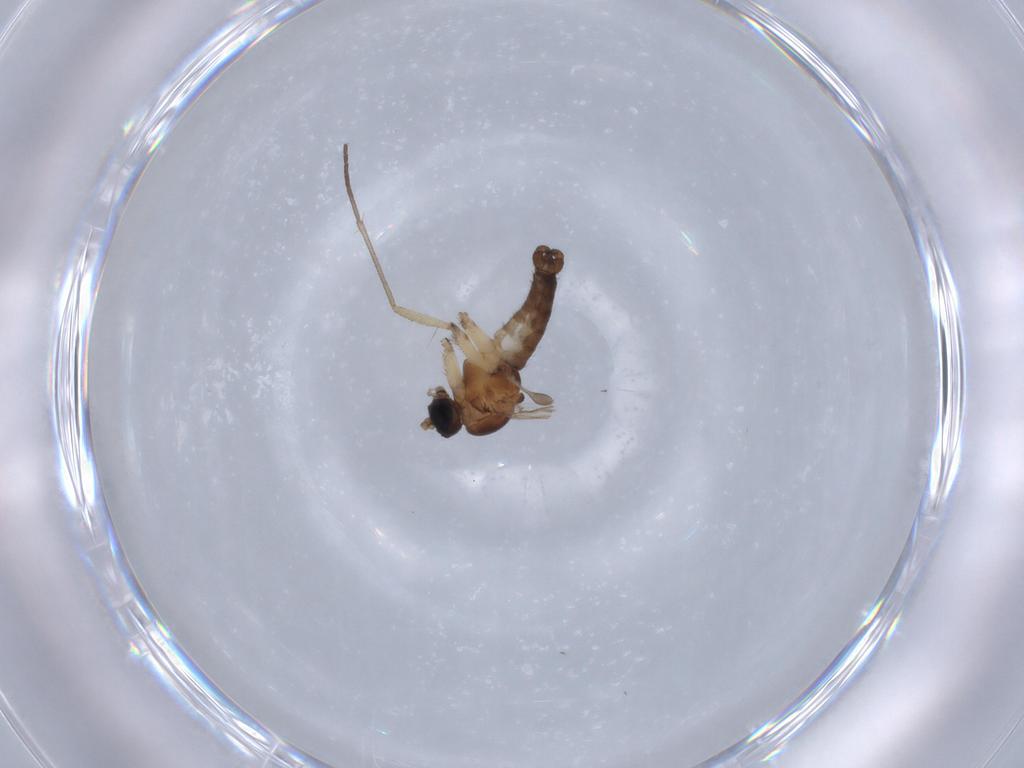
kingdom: Animalia
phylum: Arthropoda
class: Insecta
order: Diptera
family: Sciaridae
